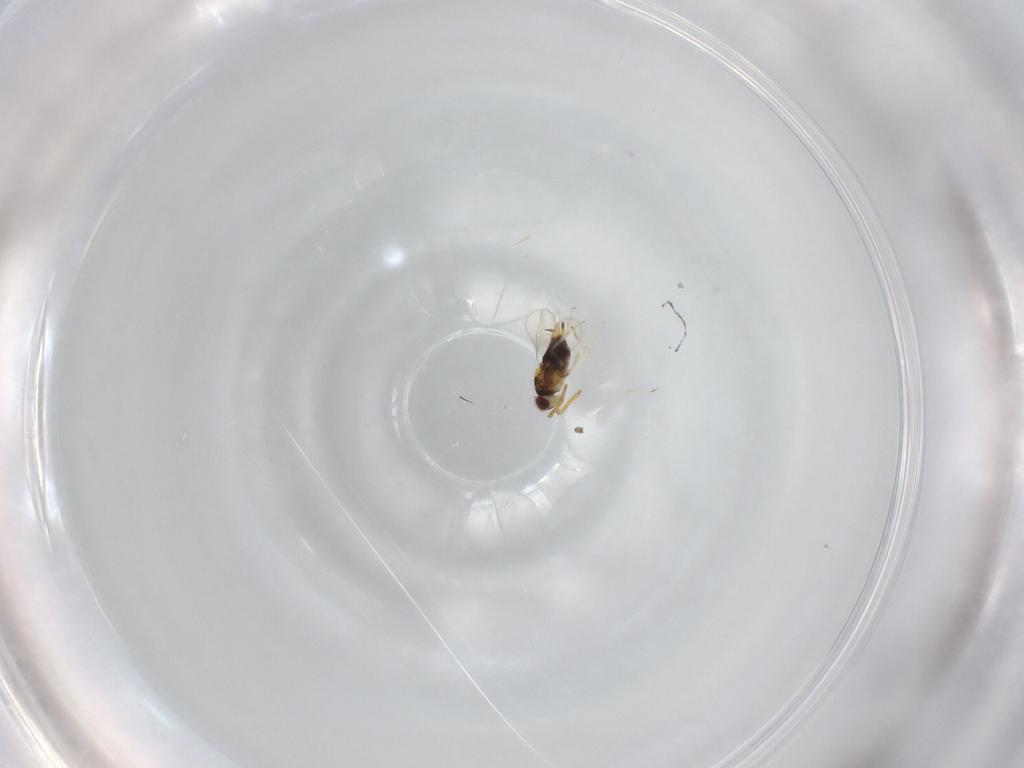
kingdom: Animalia
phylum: Arthropoda
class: Insecta
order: Hymenoptera
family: Aphelinidae
